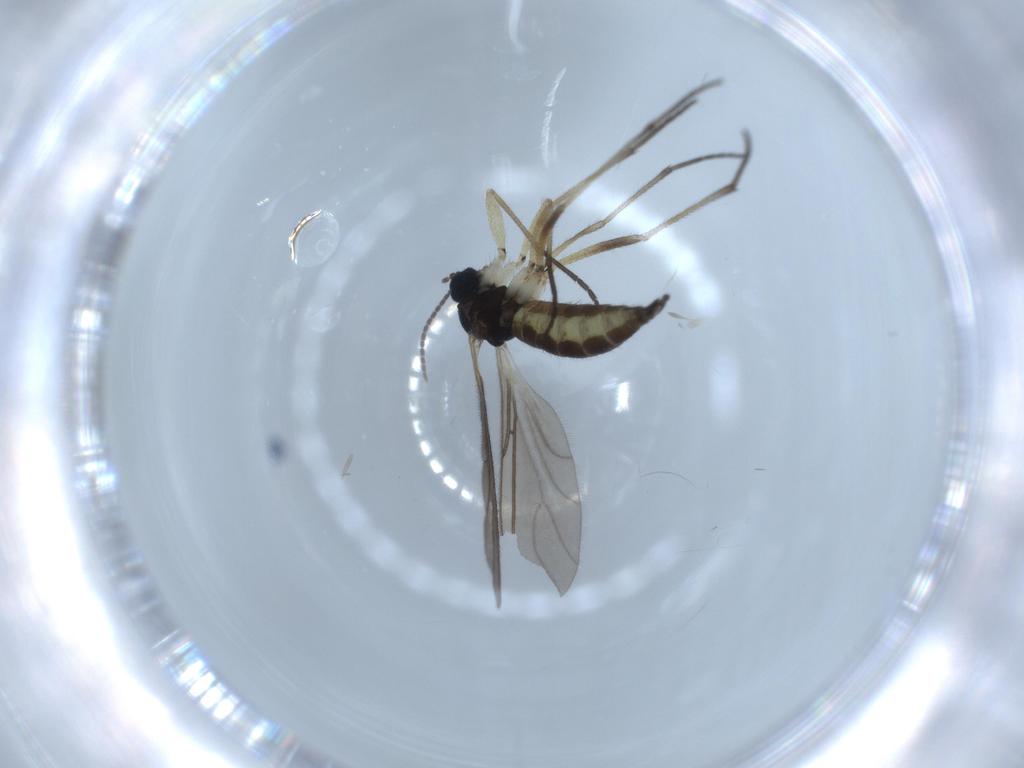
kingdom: Animalia
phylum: Arthropoda
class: Insecta
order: Diptera
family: Sciaridae
